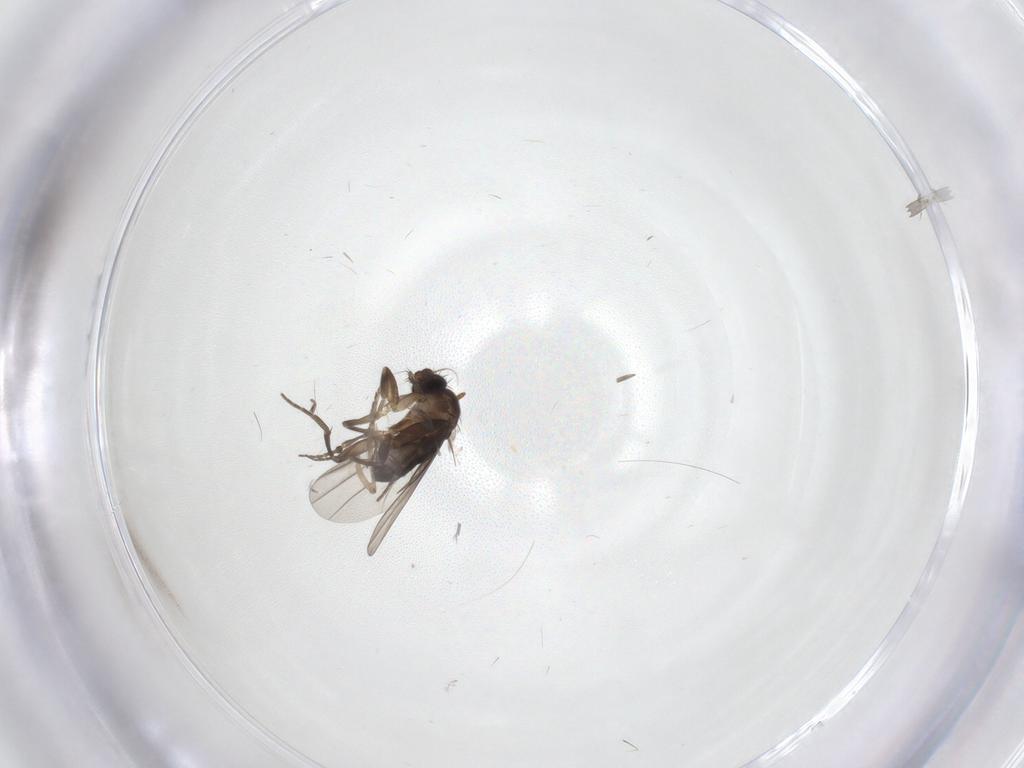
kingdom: Animalia
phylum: Arthropoda
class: Insecta
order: Diptera
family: Phoridae
